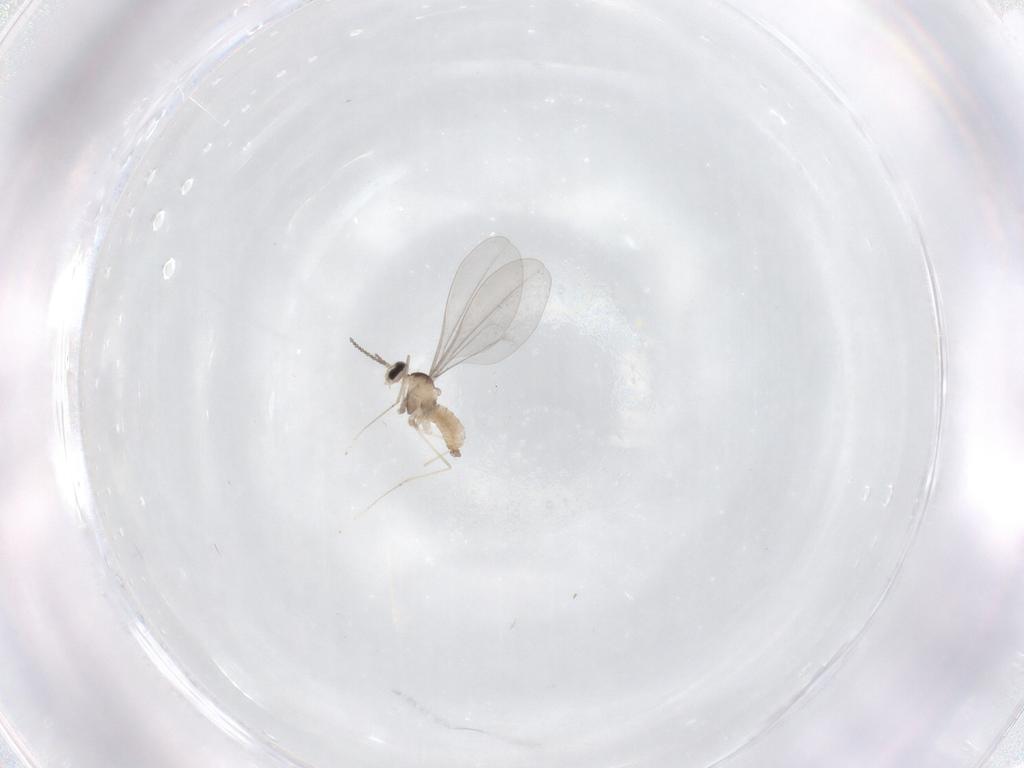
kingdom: Animalia
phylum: Arthropoda
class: Insecta
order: Diptera
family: Cecidomyiidae
